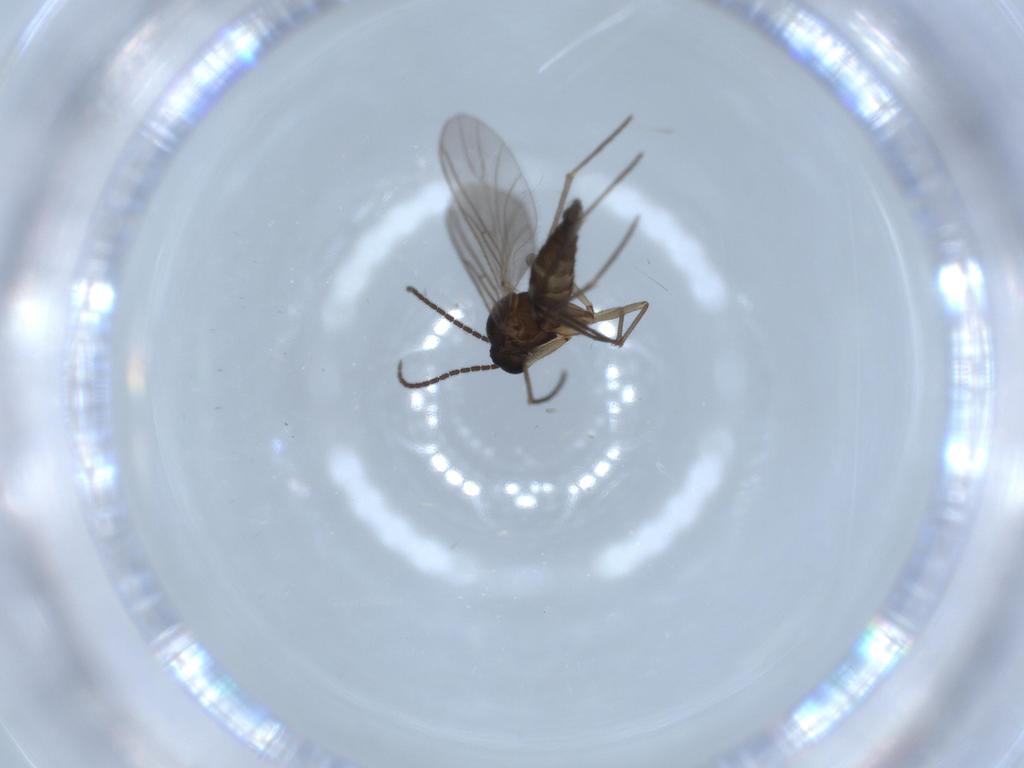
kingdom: Animalia
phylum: Arthropoda
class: Insecta
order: Diptera
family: Sciaridae
